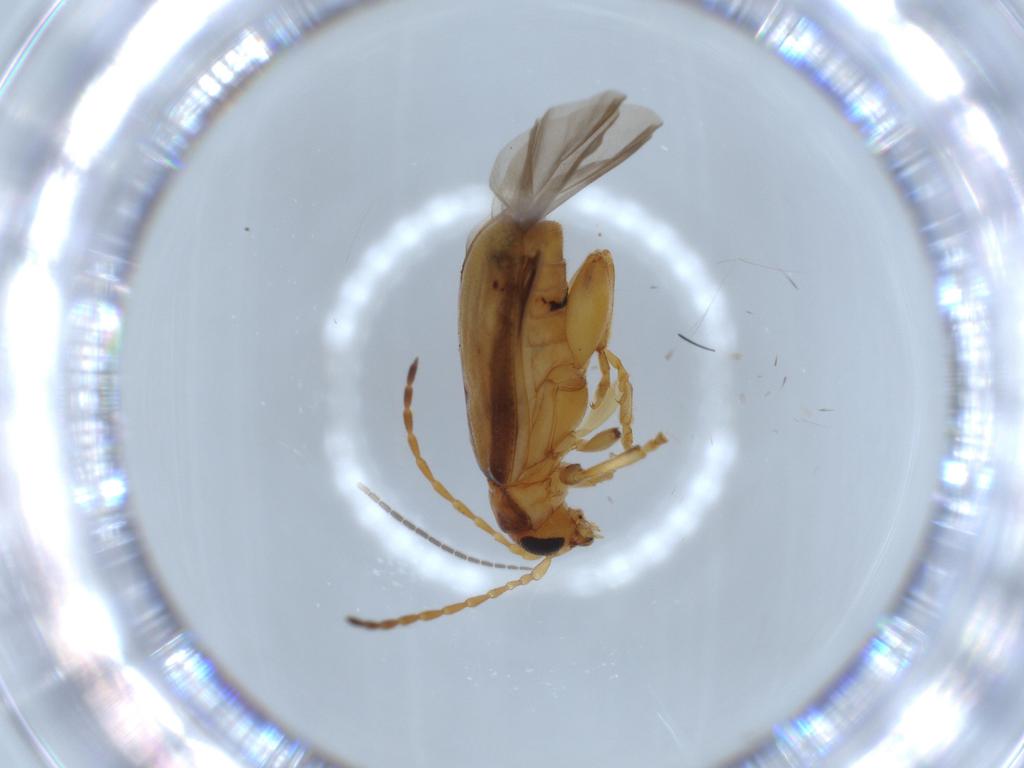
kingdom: Animalia
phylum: Arthropoda
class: Insecta
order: Coleoptera
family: Chrysomelidae
